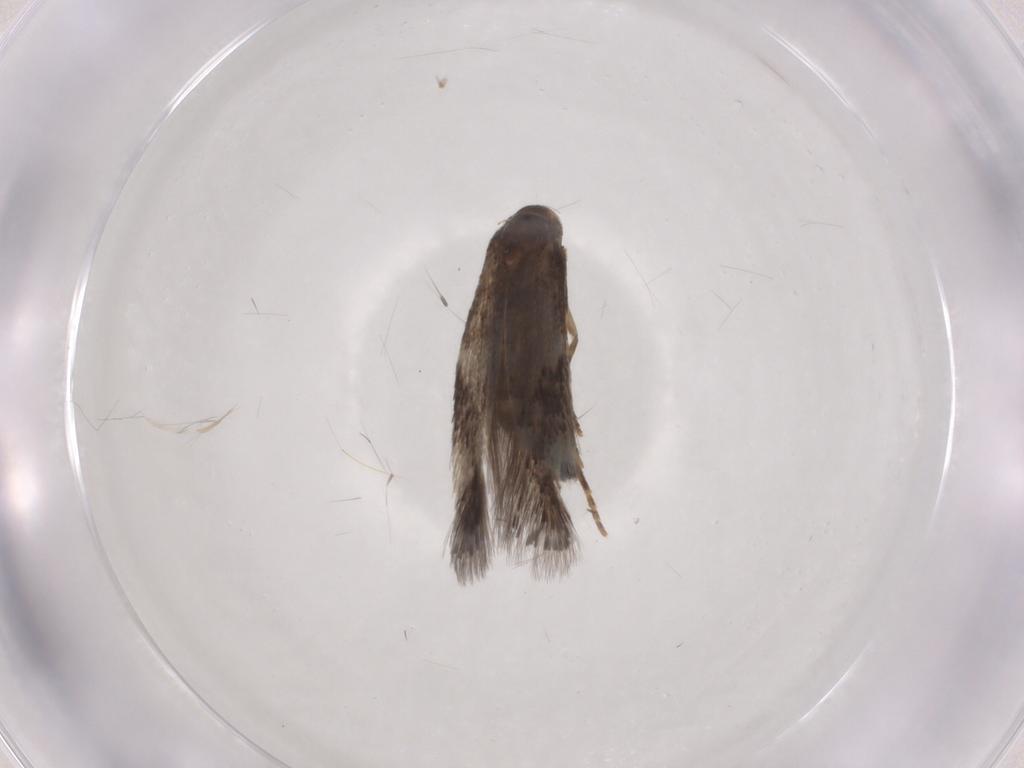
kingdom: Animalia
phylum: Arthropoda
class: Insecta
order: Lepidoptera
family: Elachistidae
